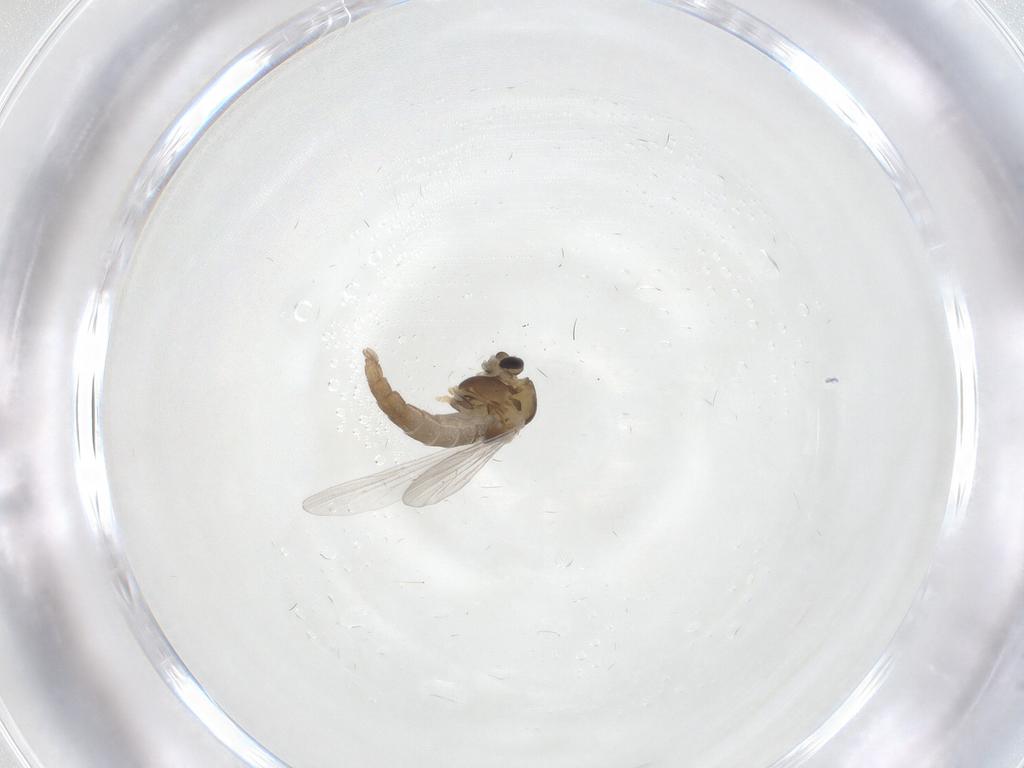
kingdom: Animalia
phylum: Arthropoda
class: Insecta
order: Diptera
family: Chironomidae
